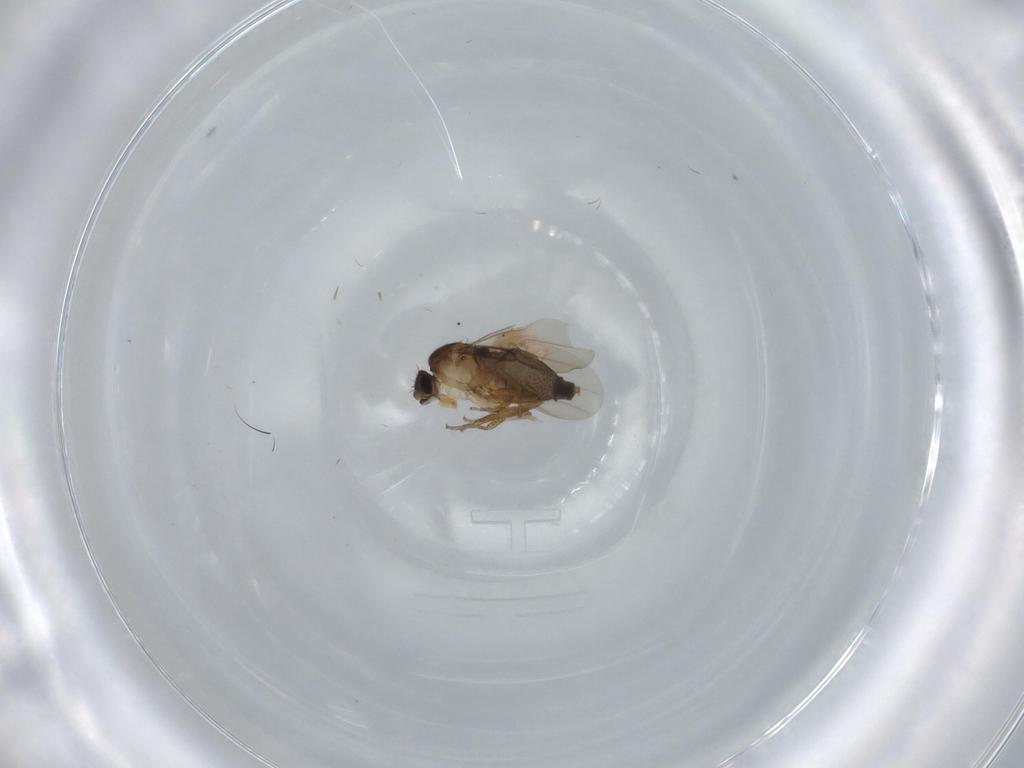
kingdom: Animalia
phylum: Arthropoda
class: Insecta
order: Diptera
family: Phoridae
